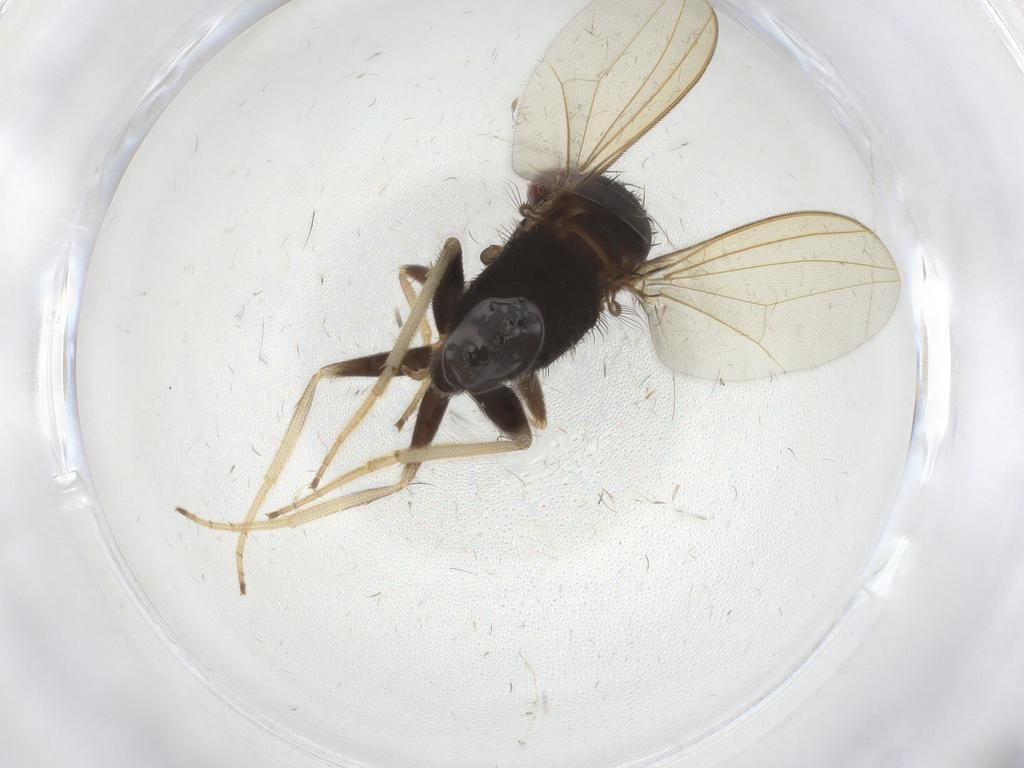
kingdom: Animalia
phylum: Arthropoda
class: Insecta
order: Diptera
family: Dolichopodidae
